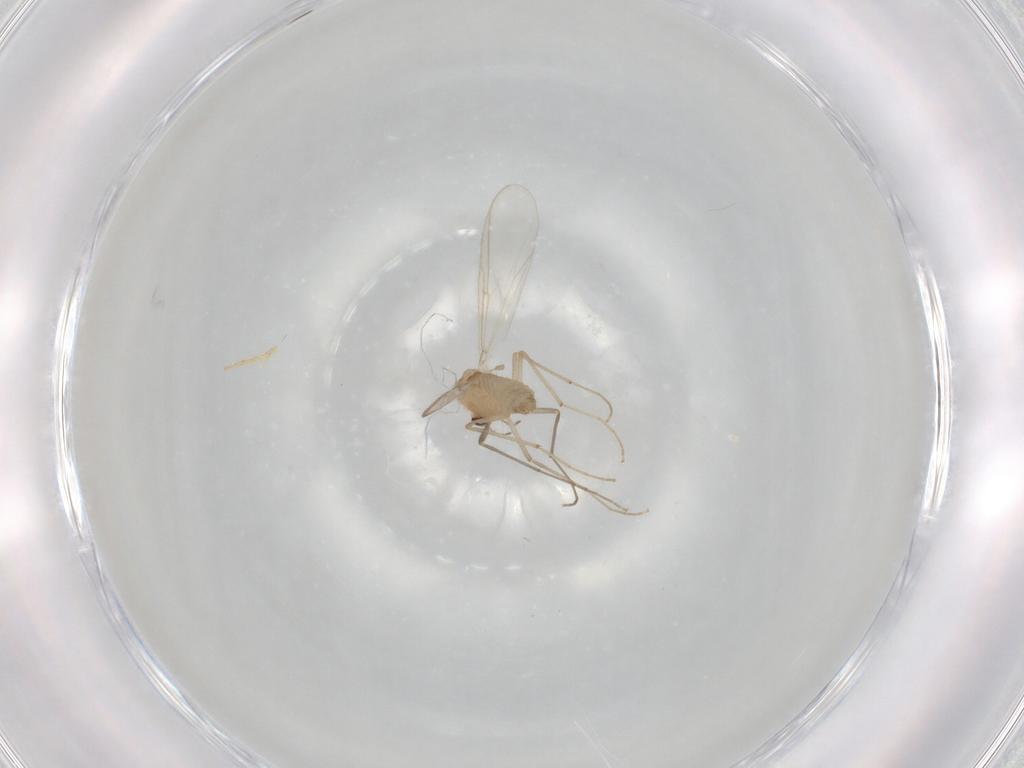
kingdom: Animalia
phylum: Arthropoda
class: Insecta
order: Diptera
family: Chironomidae
